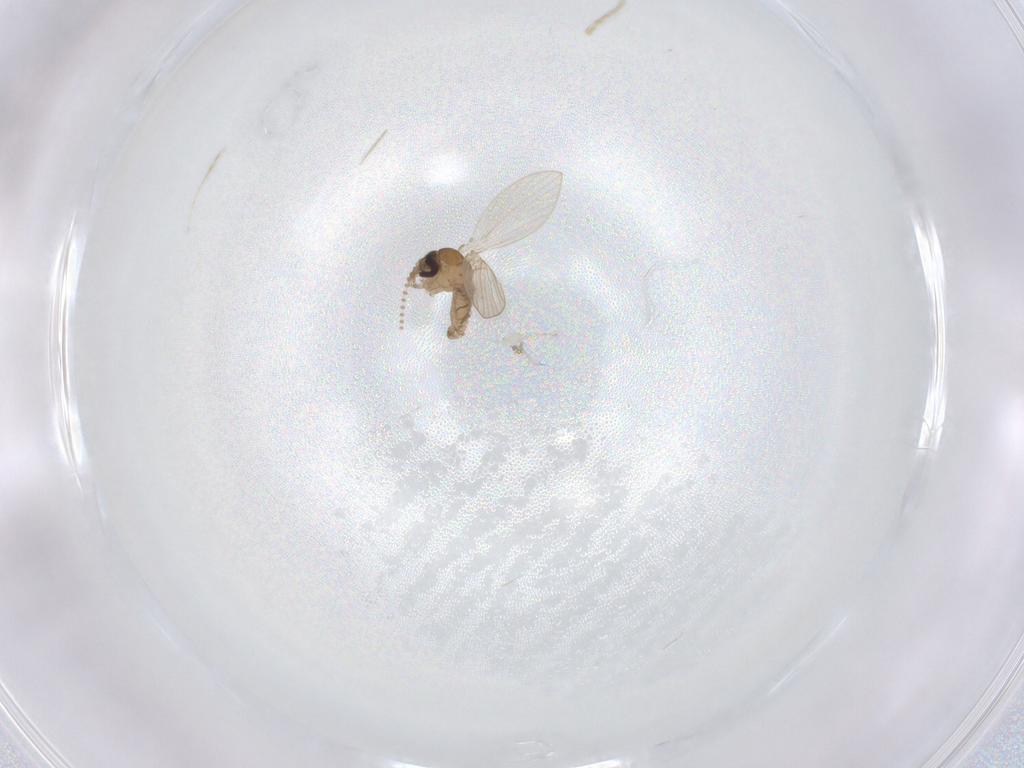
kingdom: Animalia
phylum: Arthropoda
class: Insecta
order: Diptera
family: Psychodidae
